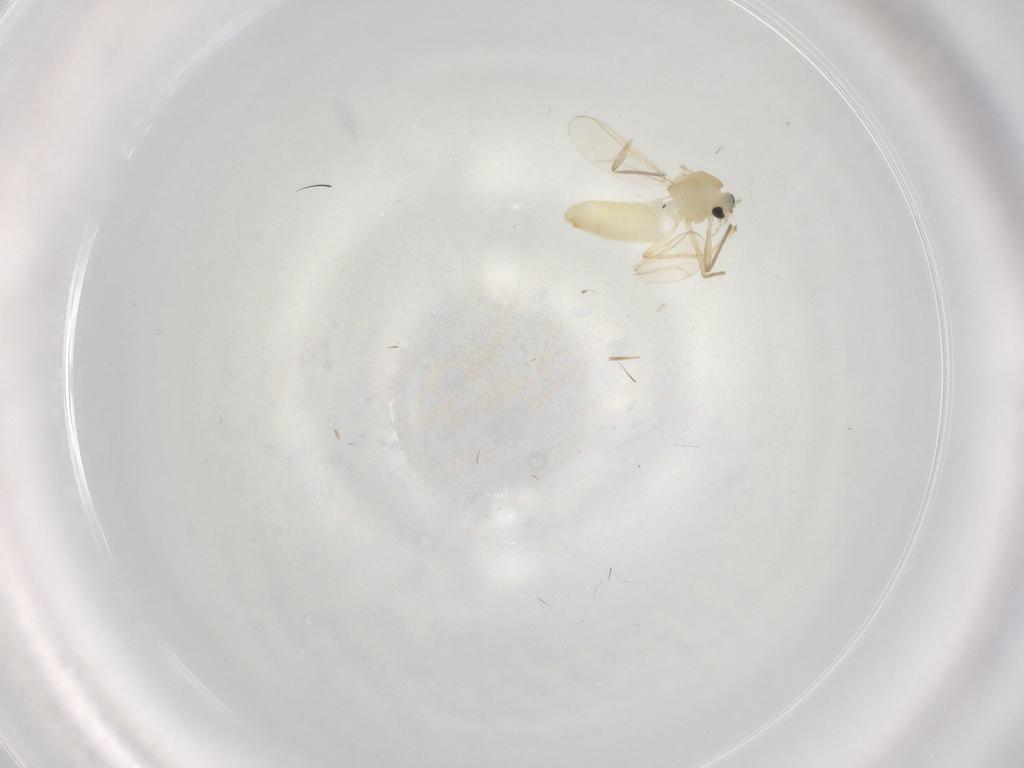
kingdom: Animalia
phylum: Arthropoda
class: Insecta
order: Diptera
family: Chironomidae
